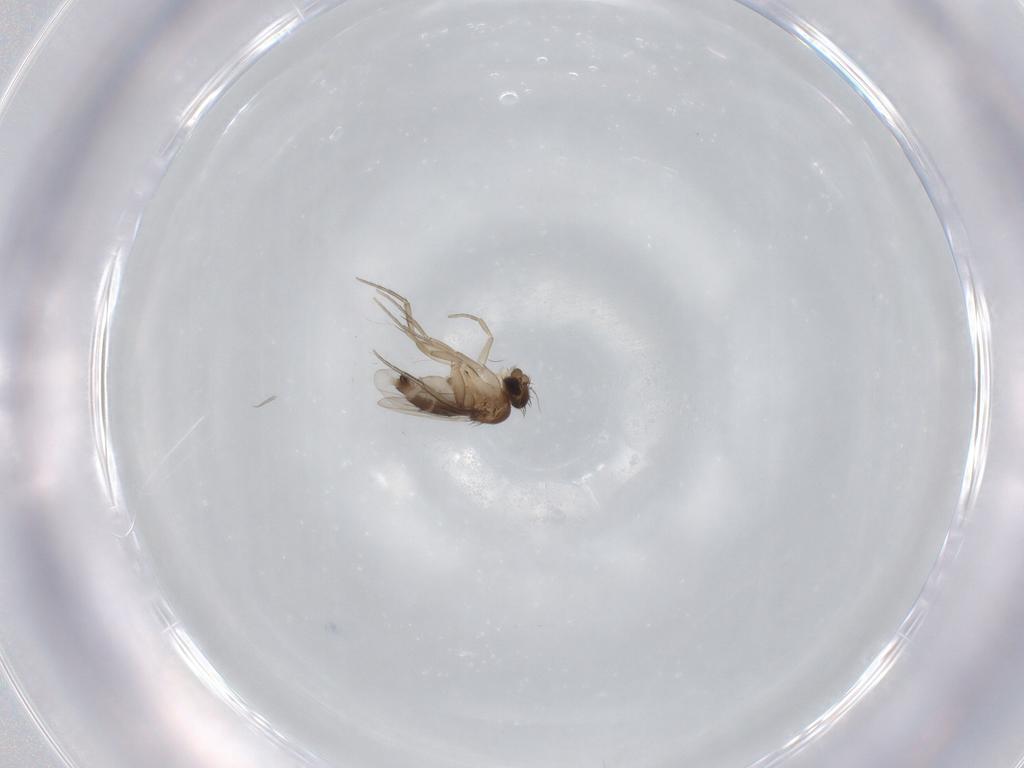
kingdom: Animalia
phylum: Arthropoda
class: Insecta
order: Diptera
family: Phoridae
